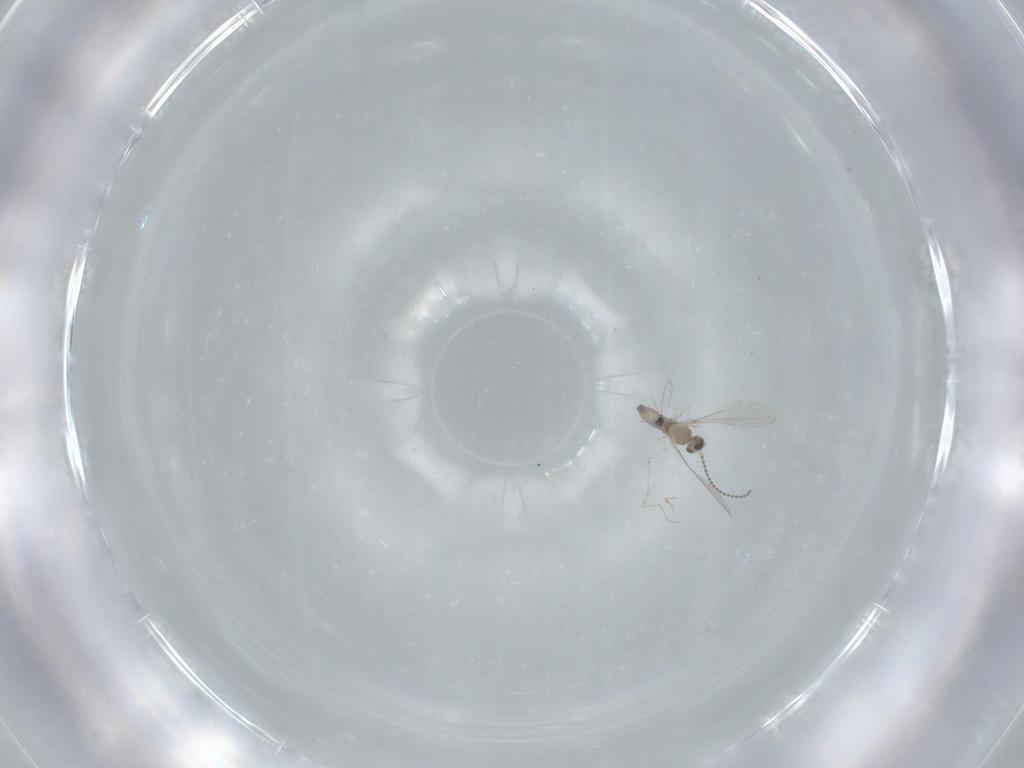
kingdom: Animalia
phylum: Arthropoda
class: Insecta
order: Diptera
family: Cecidomyiidae
